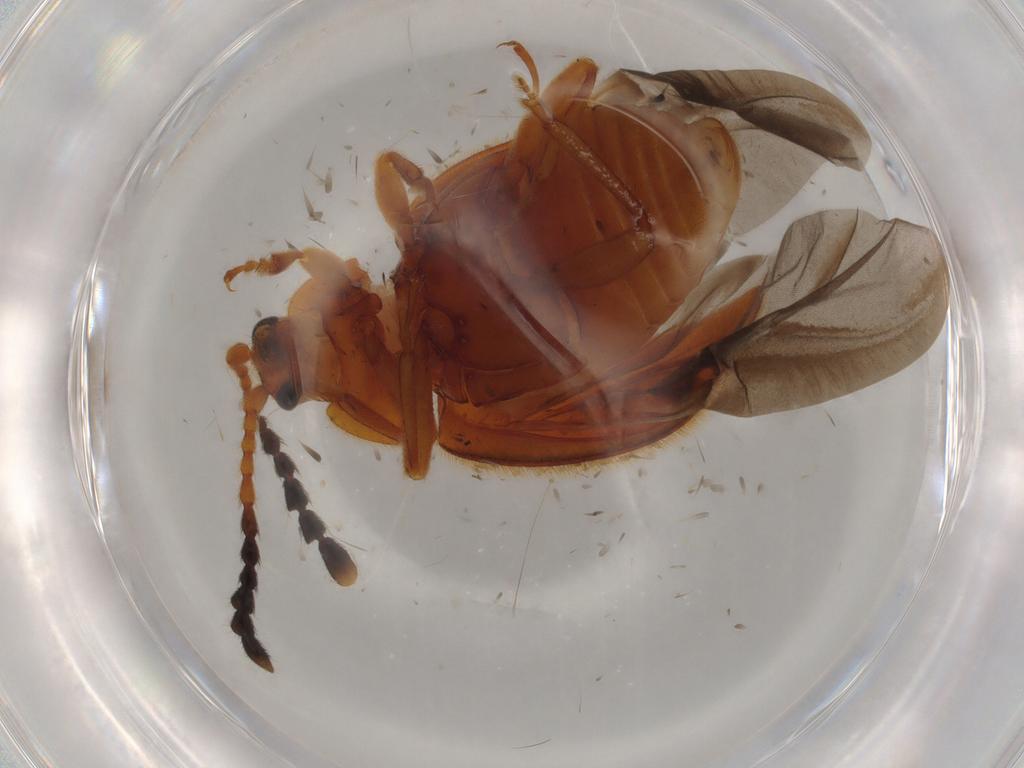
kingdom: Animalia
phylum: Arthropoda
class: Insecta
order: Coleoptera
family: Endomychidae
